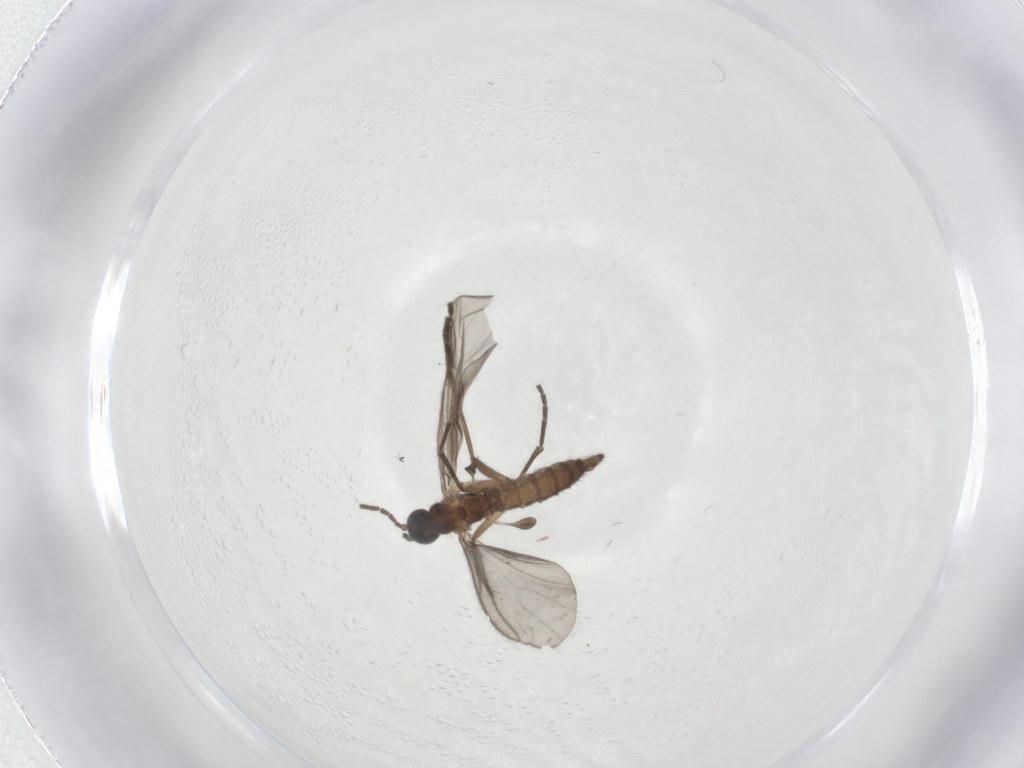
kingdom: Animalia
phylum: Arthropoda
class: Insecta
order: Diptera
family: Sciaridae
